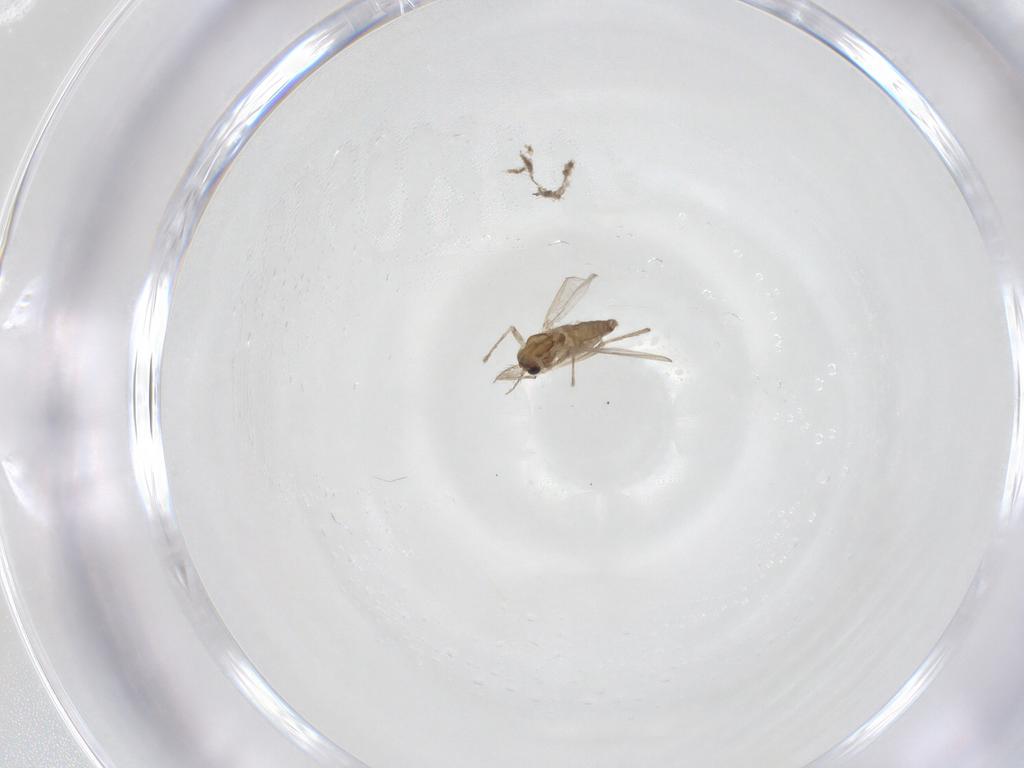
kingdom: Animalia
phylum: Arthropoda
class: Insecta
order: Diptera
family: Chironomidae
